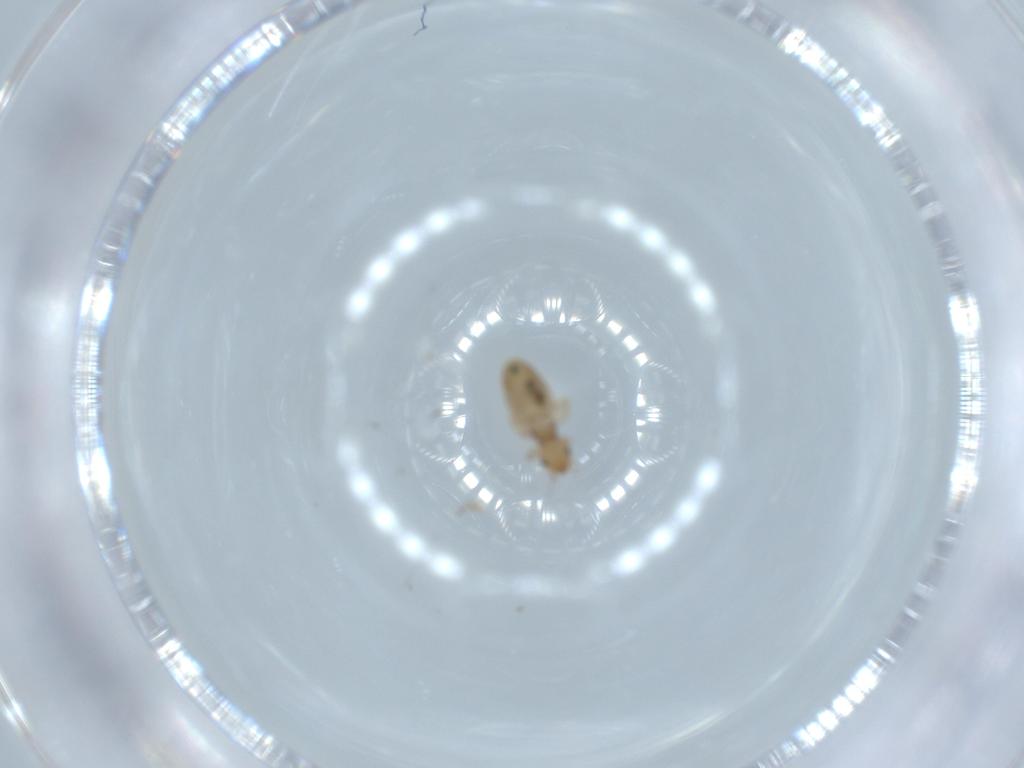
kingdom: Animalia
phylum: Arthropoda
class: Insecta
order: Psocodea
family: Liposcelididae
